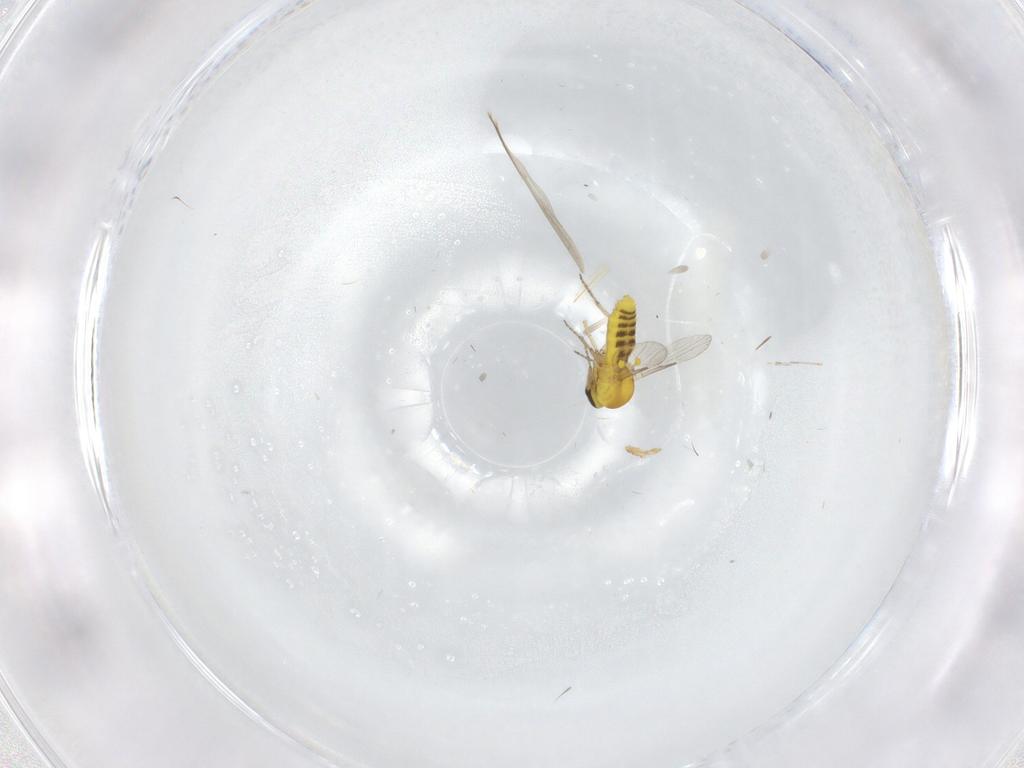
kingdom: Animalia
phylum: Arthropoda
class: Insecta
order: Diptera
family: Ceratopogonidae
